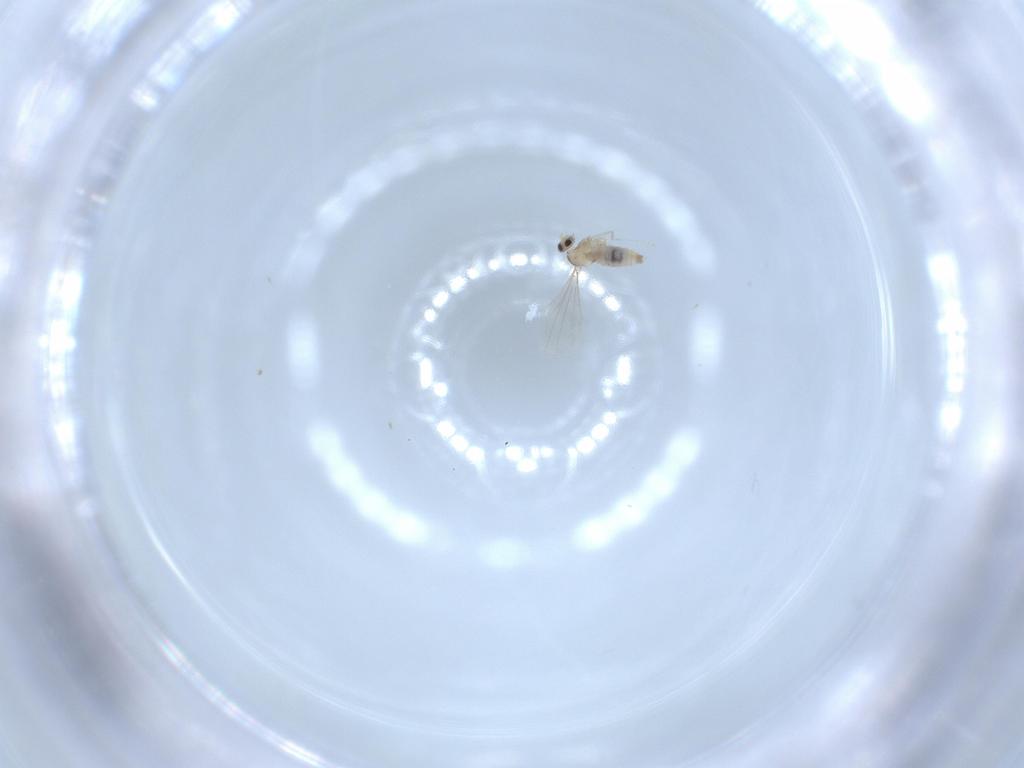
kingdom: Animalia
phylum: Arthropoda
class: Insecta
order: Diptera
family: Cecidomyiidae
